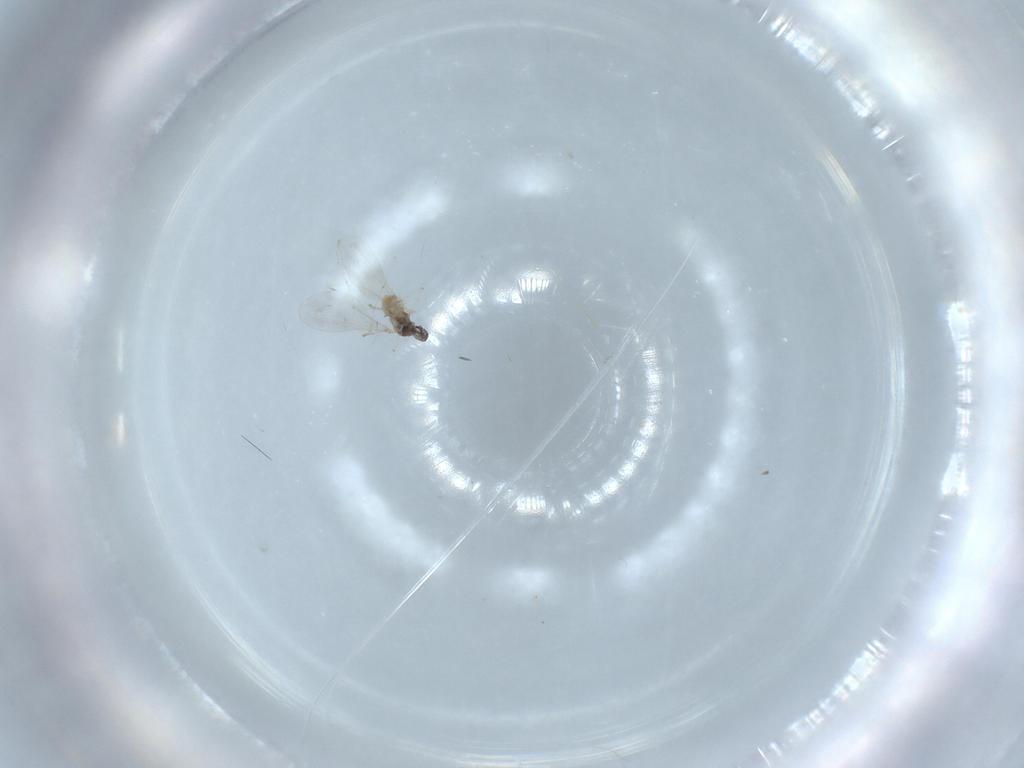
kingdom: Animalia
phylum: Arthropoda
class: Insecta
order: Diptera
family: Cecidomyiidae
